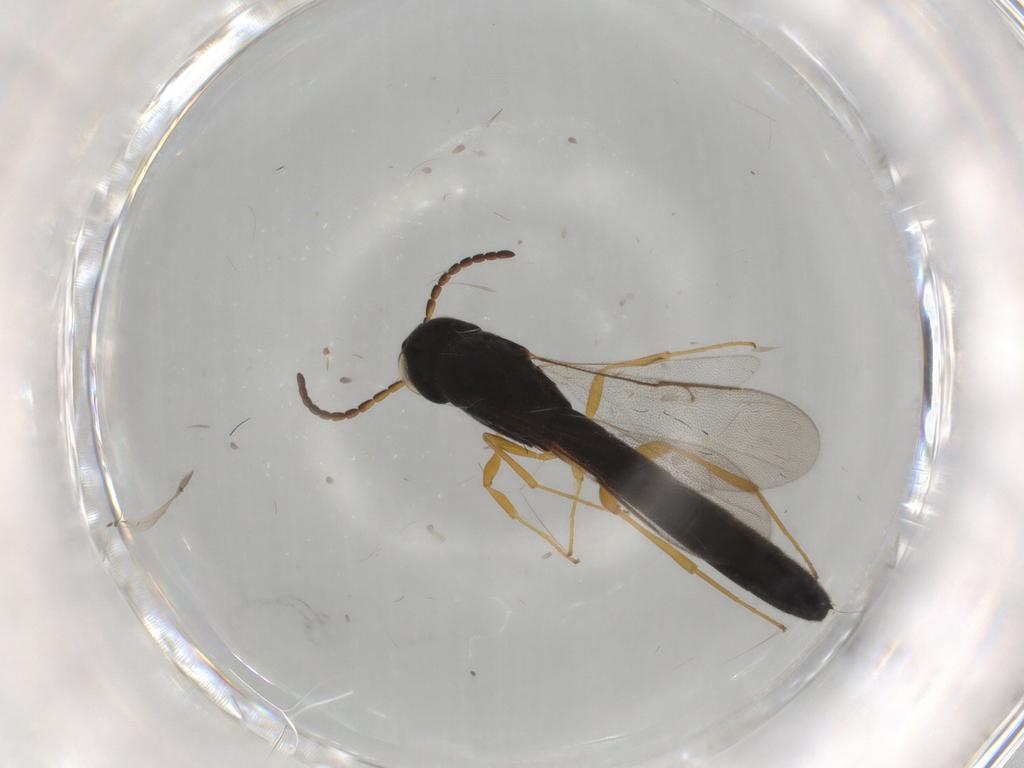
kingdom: Animalia
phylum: Arthropoda
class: Insecta
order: Hymenoptera
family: Scelionidae
